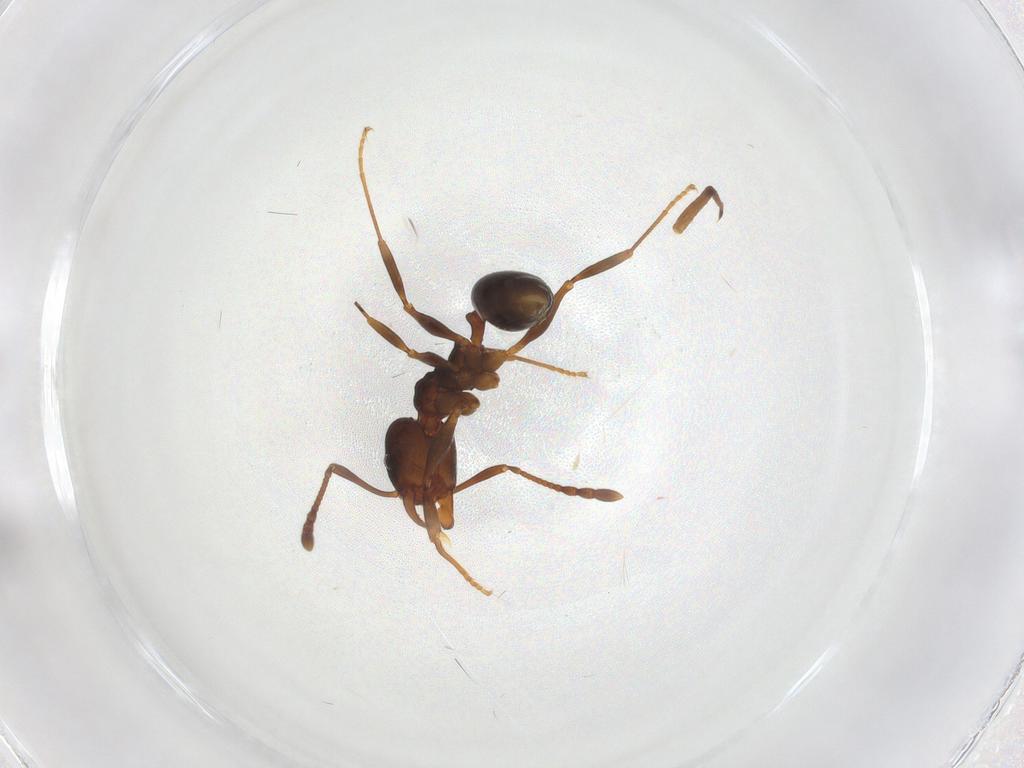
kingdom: Animalia
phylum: Arthropoda
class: Insecta
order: Hymenoptera
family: Formicidae
